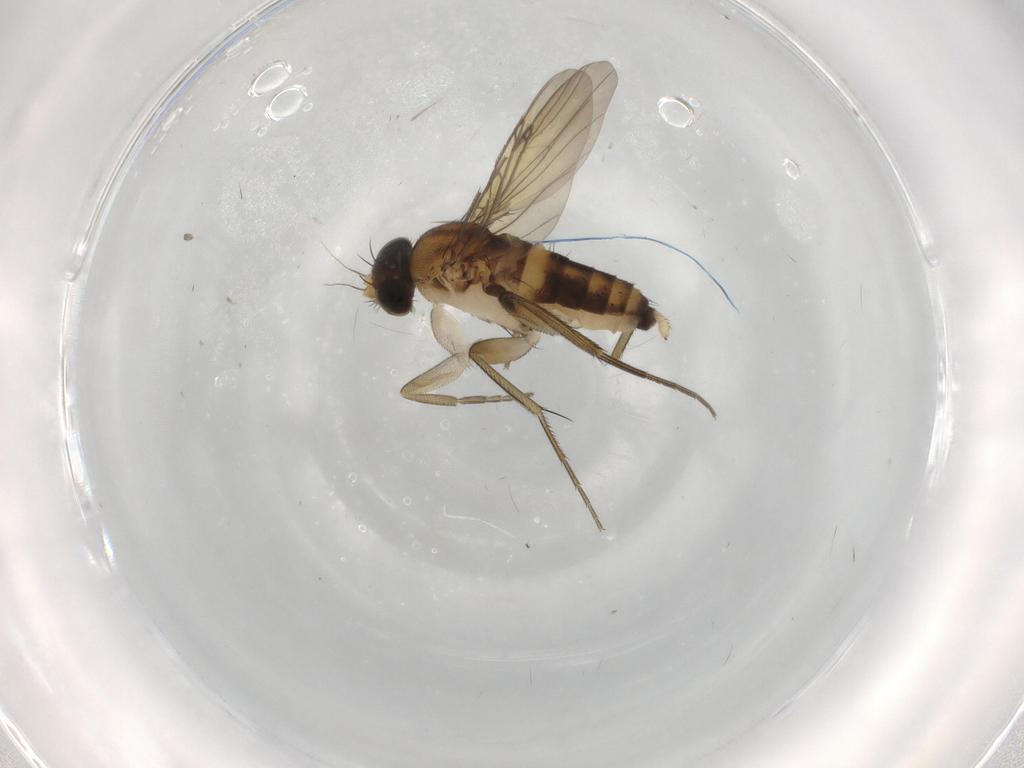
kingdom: Animalia
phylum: Arthropoda
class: Insecta
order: Diptera
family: Phoridae
